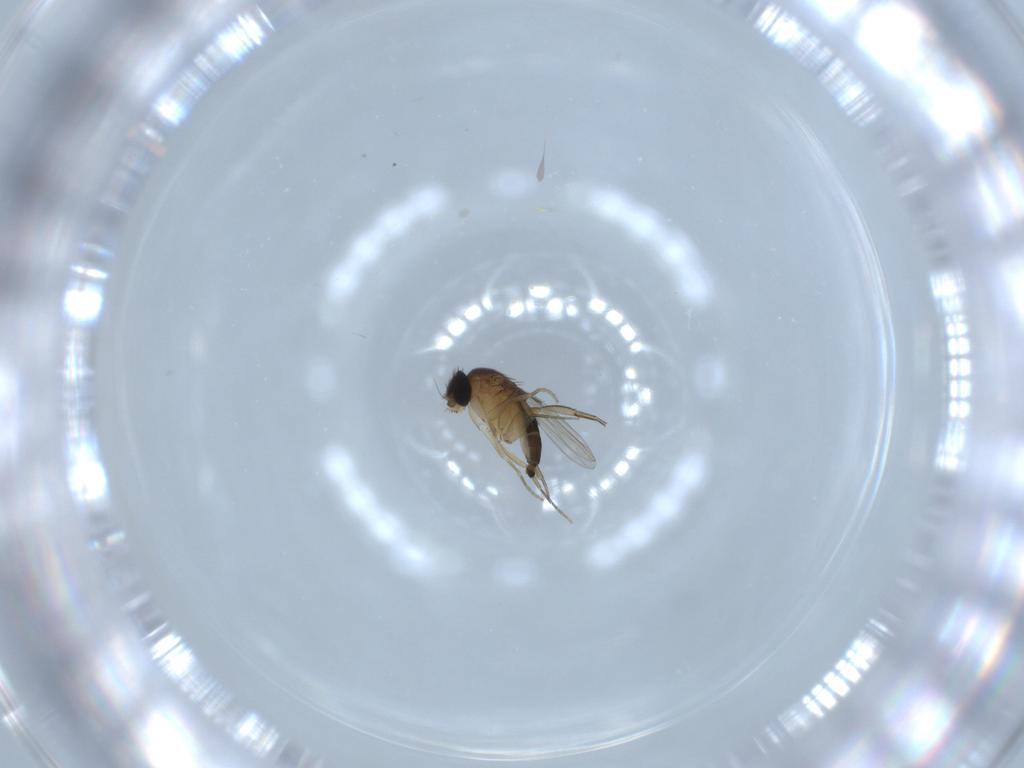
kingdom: Animalia
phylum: Arthropoda
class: Insecta
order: Diptera
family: Phoridae
